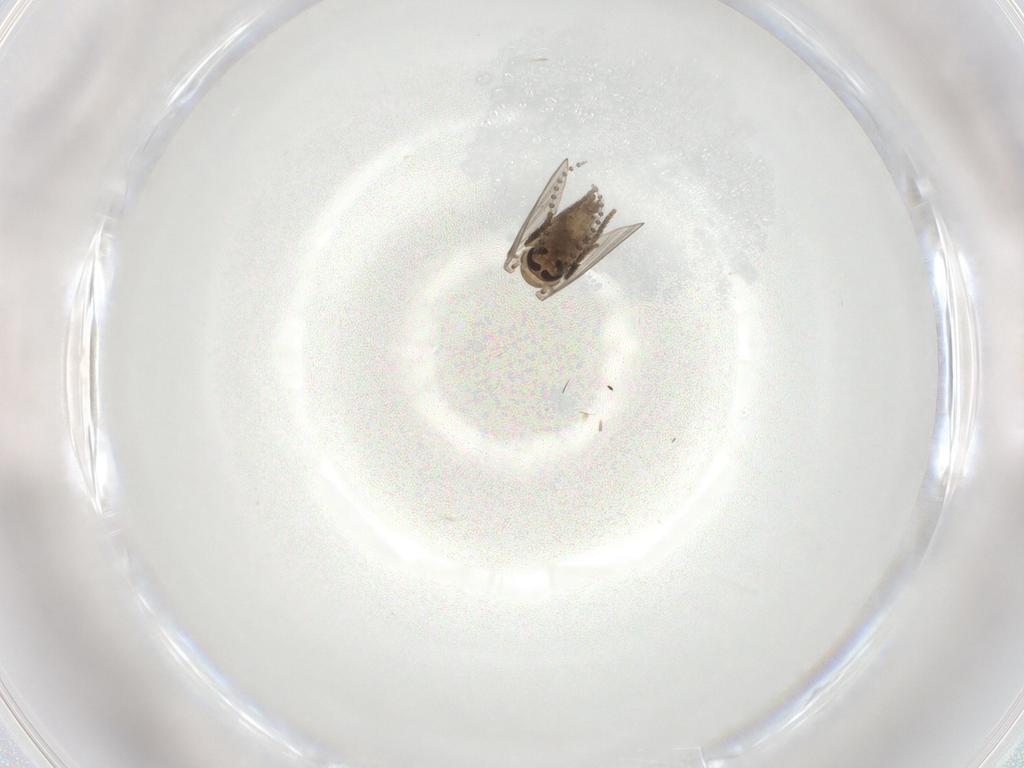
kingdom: Animalia
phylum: Arthropoda
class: Insecta
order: Diptera
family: Psychodidae
